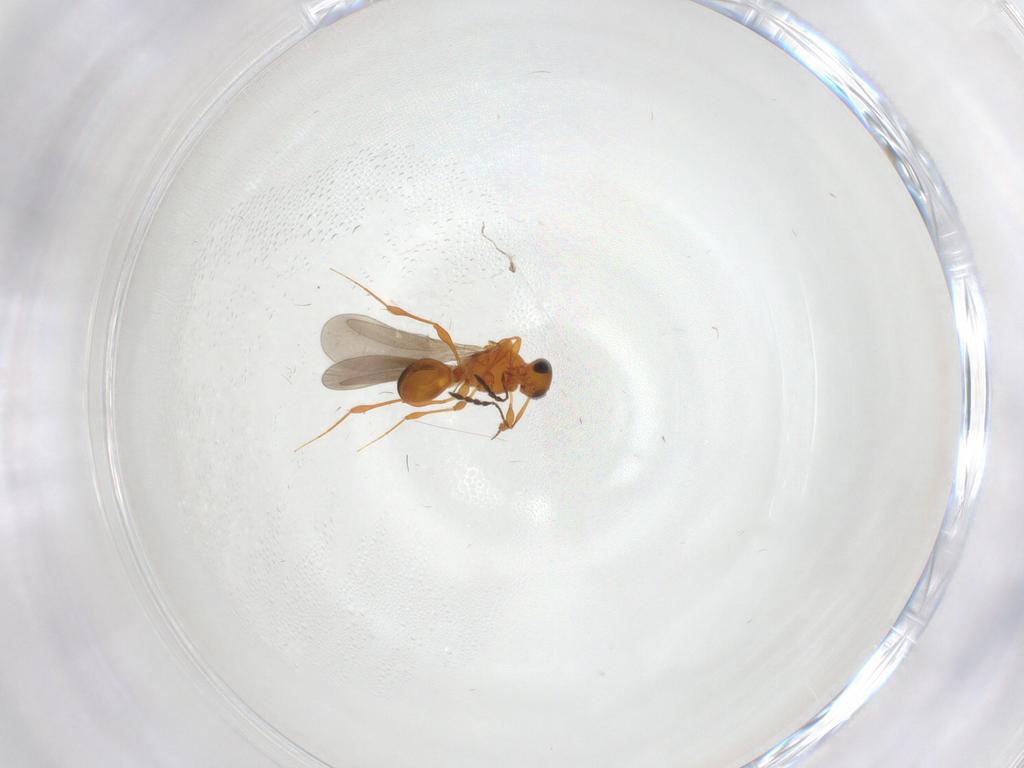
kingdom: Animalia
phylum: Arthropoda
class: Insecta
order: Hymenoptera
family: Platygastridae
